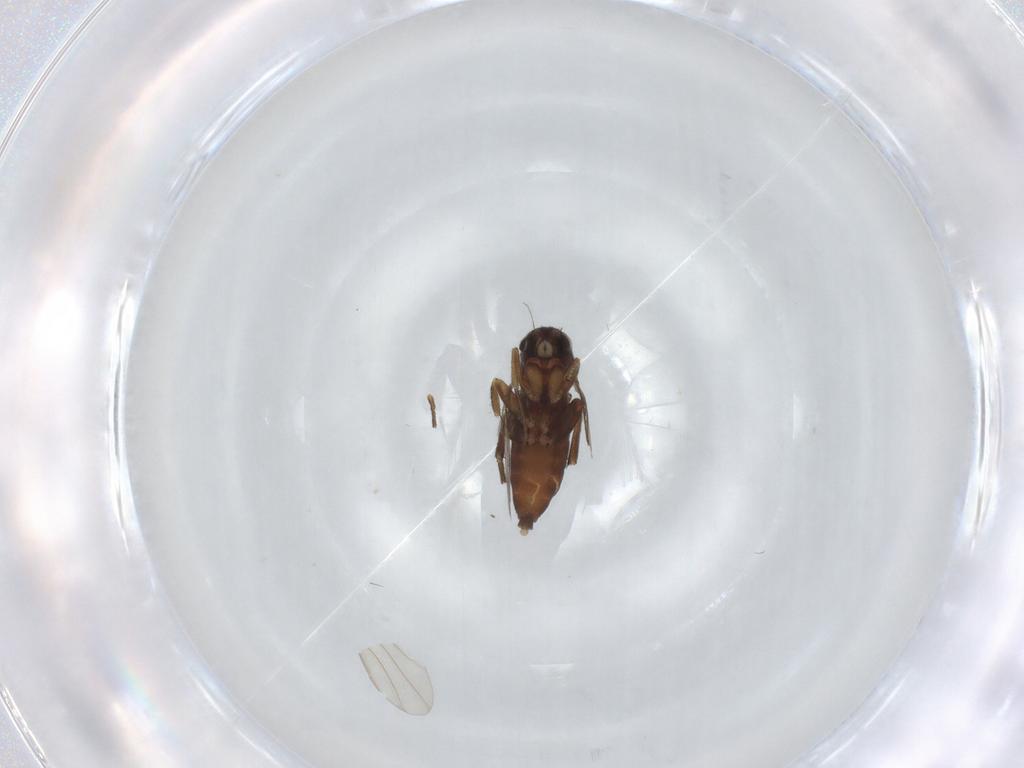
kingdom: Animalia
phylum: Arthropoda
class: Insecta
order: Diptera
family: Phoridae
